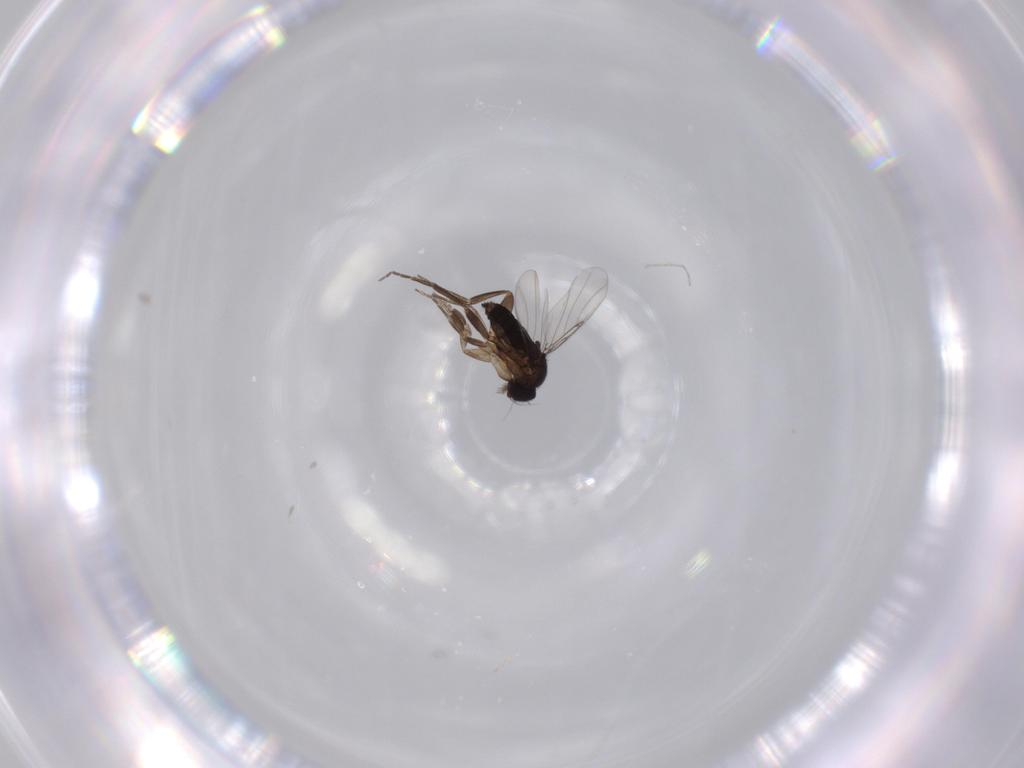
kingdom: Animalia
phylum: Arthropoda
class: Insecta
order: Diptera
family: Phoridae
